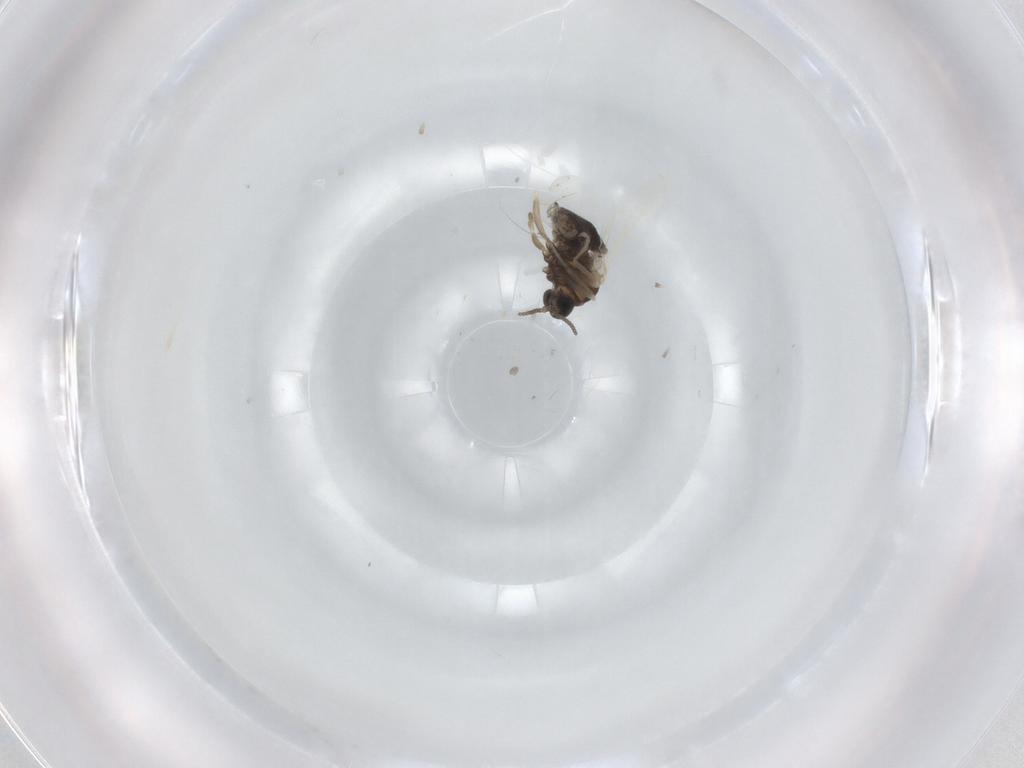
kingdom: Animalia
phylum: Arthropoda
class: Insecta
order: Diptera
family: Cecidomyiidae
